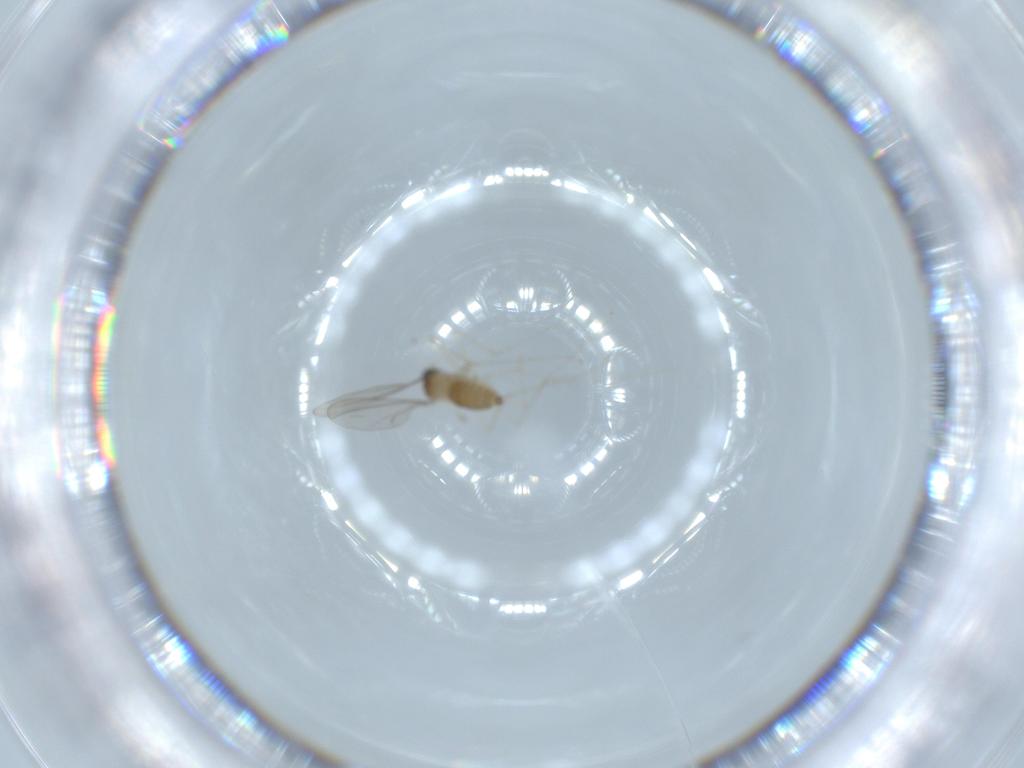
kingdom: Animalia
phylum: Arthropoda
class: Insecta
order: Diptera
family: Cecidomyiidae
